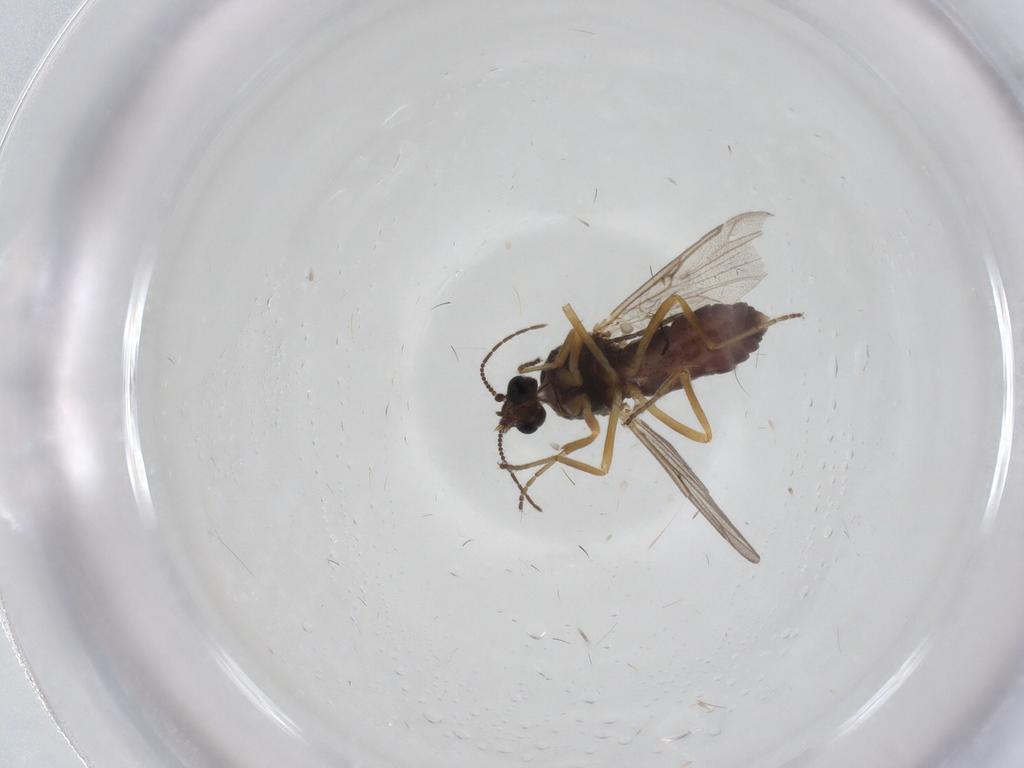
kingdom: Animalia
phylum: Arthropoda
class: Insecta
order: Diptera
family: Ceratopogonidae
